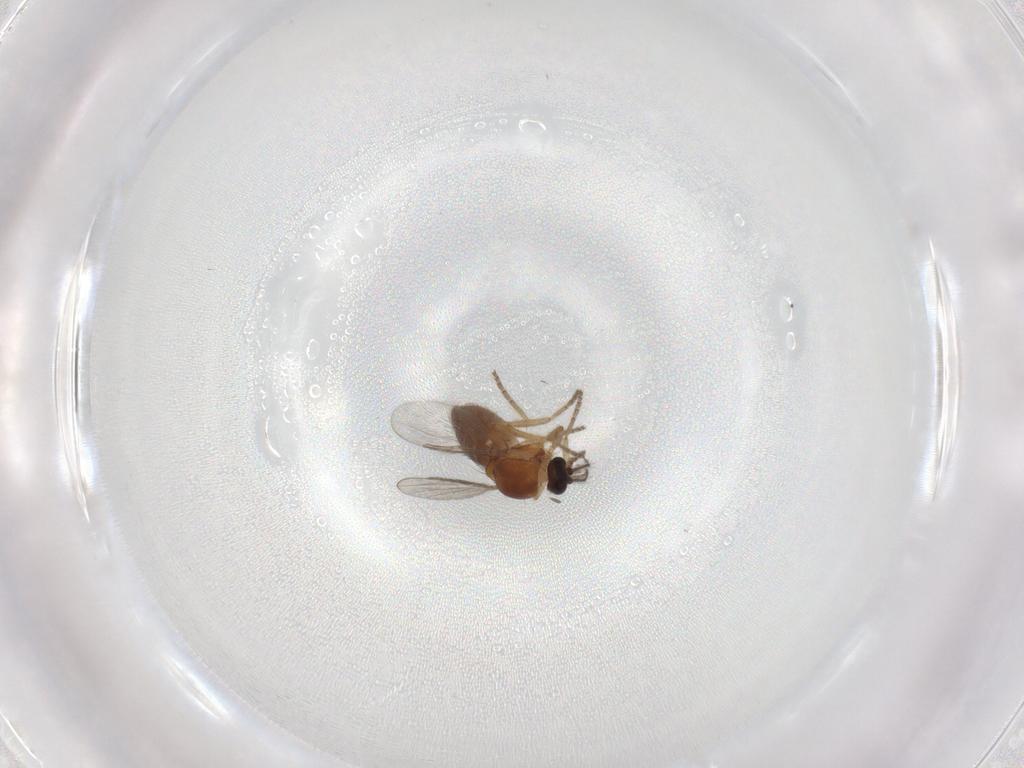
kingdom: Animalia
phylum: Arthropoda
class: Insecta
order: Diptera
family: Ceratopogonidae
